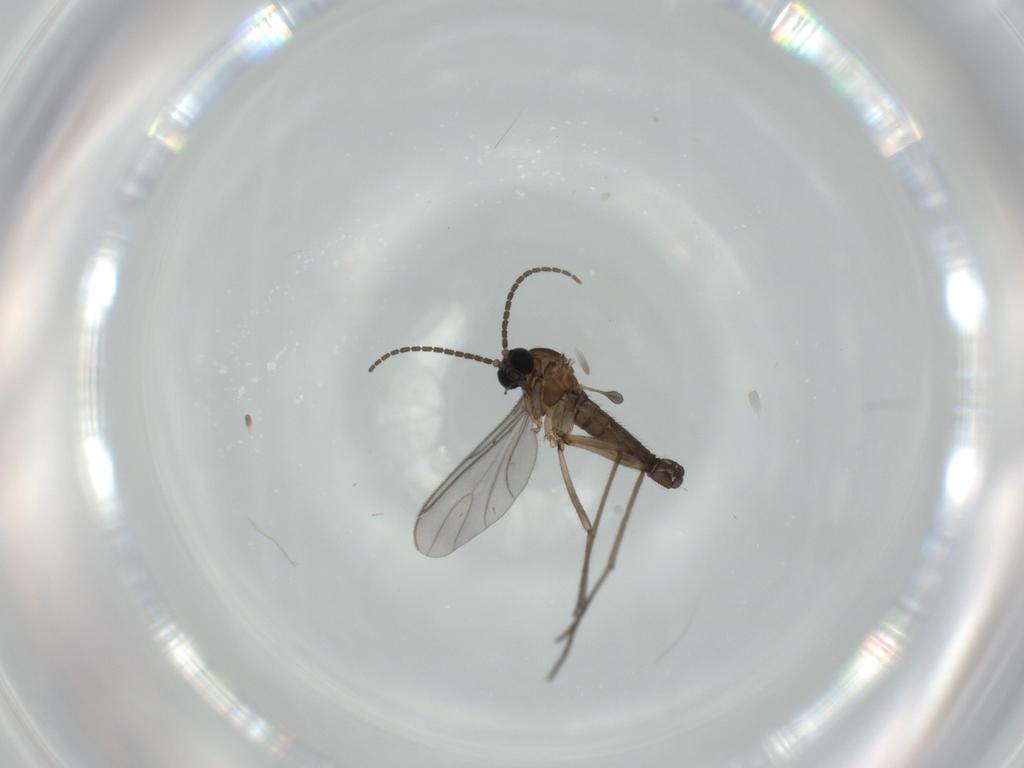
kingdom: Animalia
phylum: Arthropoda
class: Insecta
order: Diptera
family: Sciaridae
